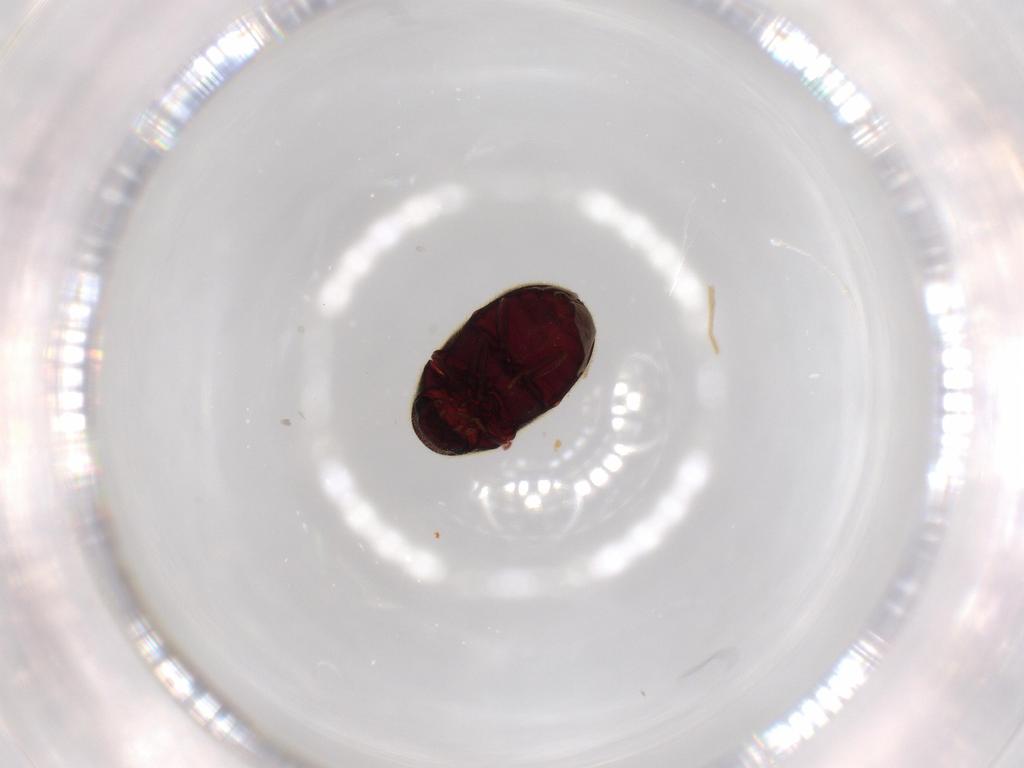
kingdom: Animalia
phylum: Arthropoda
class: Insecta
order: Coleoptera
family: Ptinidae
